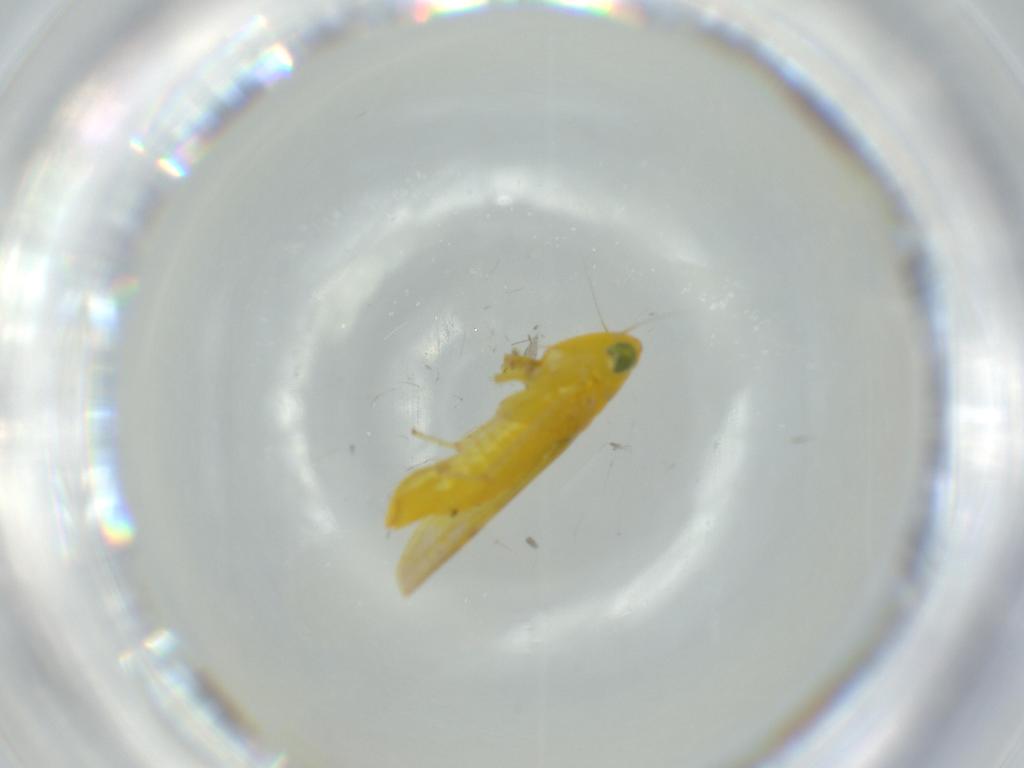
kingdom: Animalia
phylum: Arthropoda
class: Insecta
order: Hemiptera
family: Cicadellidae
